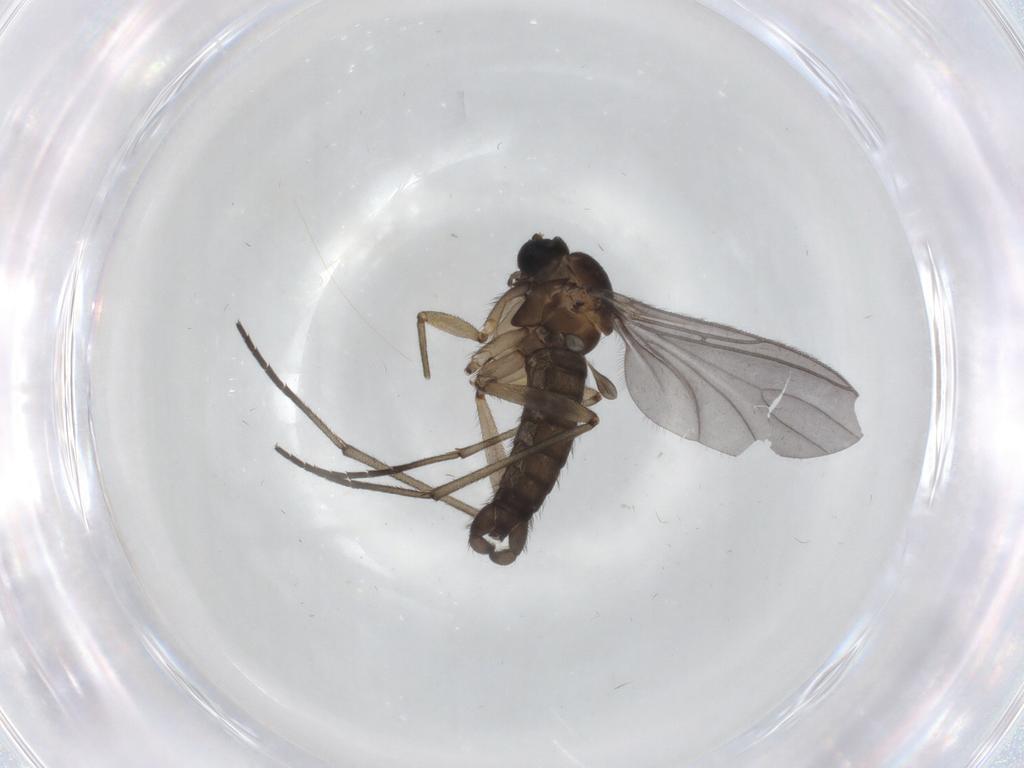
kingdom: Animalia
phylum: Arthropoda
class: Insecta
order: Diptera
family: Sciaridae
